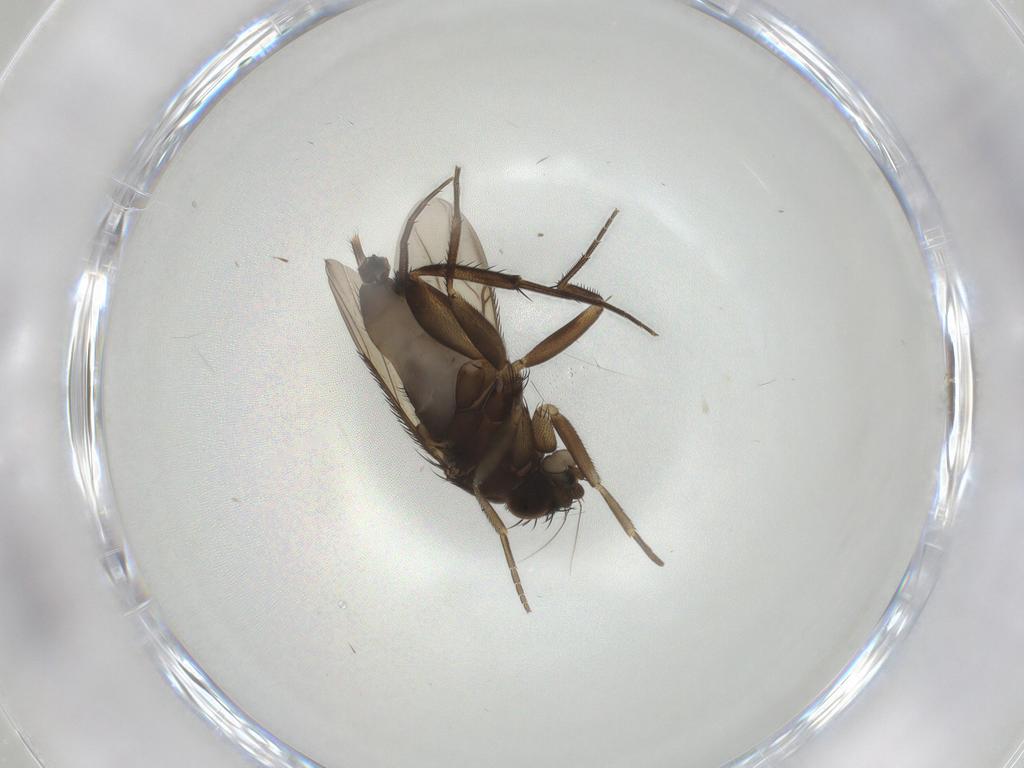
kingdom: Animalia
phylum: Arthropoda
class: Insecta
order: Diptera
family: Phoridae
